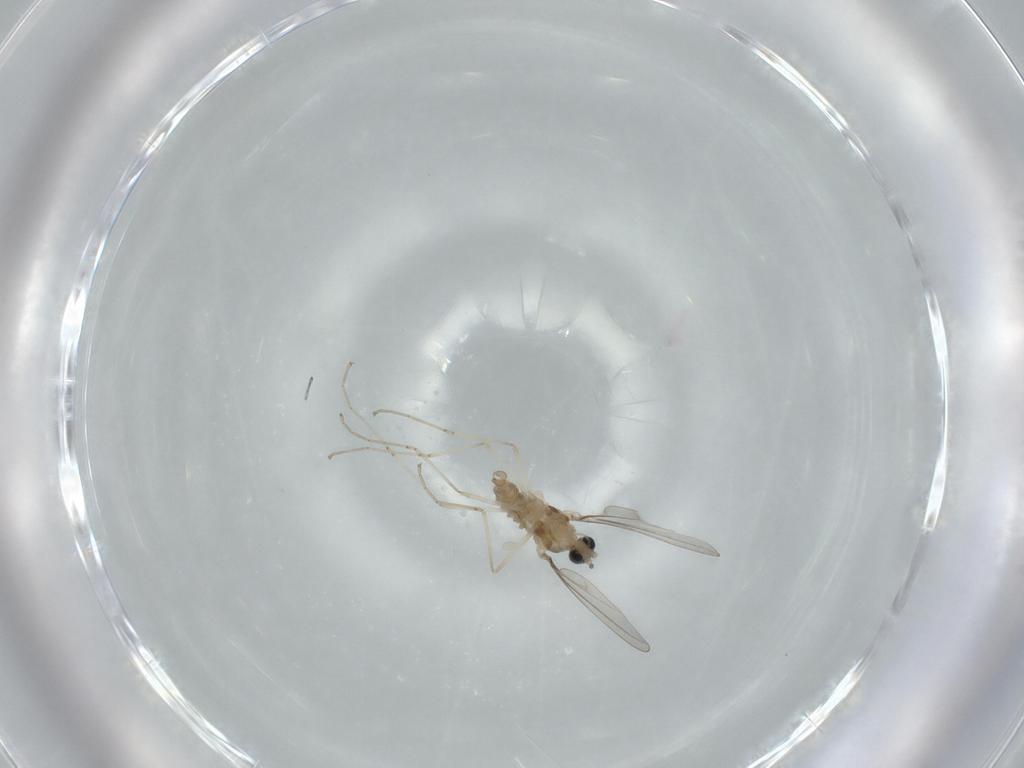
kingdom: Animalia
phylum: Arthropoda
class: Insecta
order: Diptera
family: Cecidomyiidae
